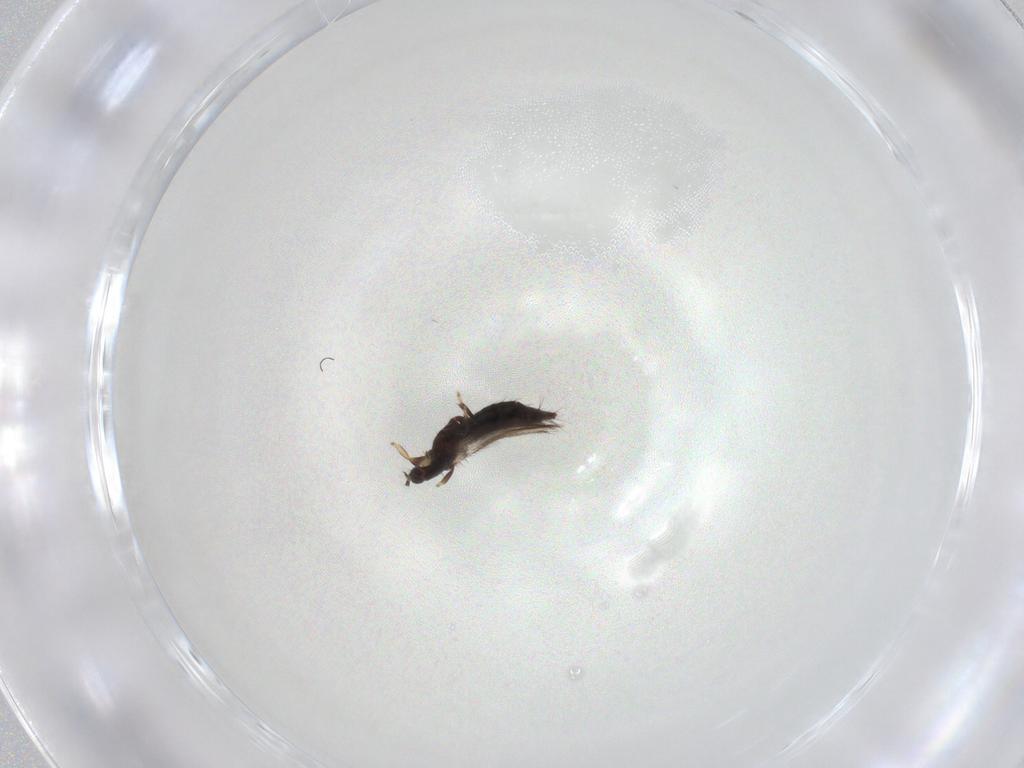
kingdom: Animalia
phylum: Arthropoda
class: Insecta
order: Thysanoptera
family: Thripidae
